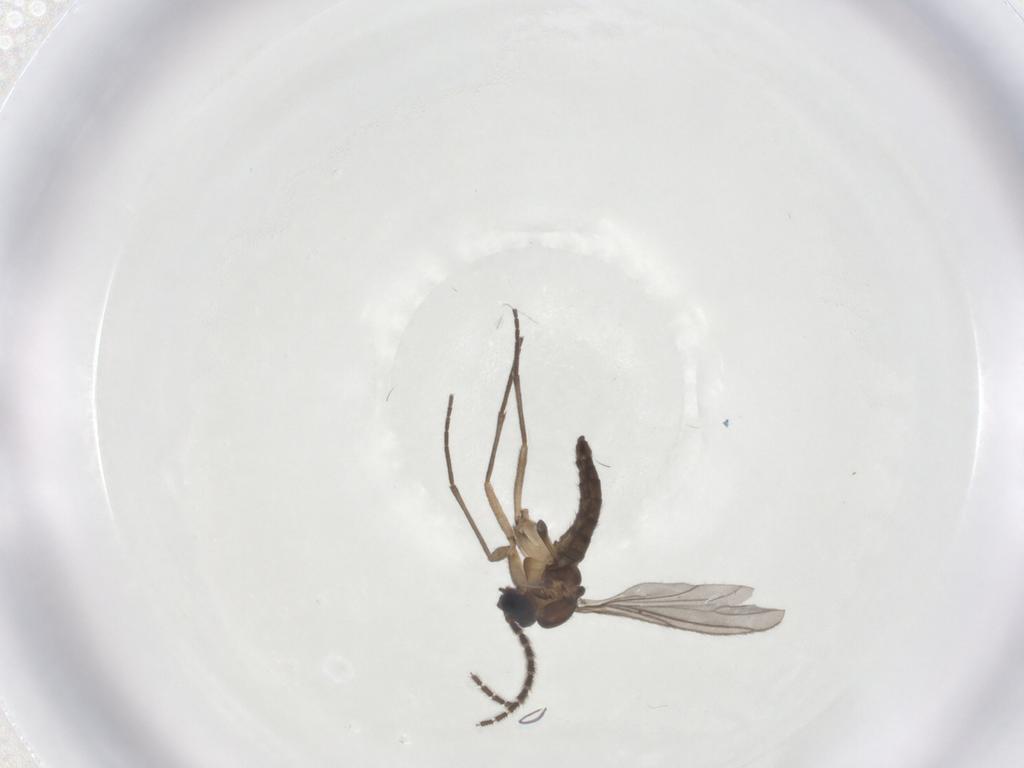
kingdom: Animalia
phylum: Arthropoda
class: Insecta
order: Diptera
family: Sciaridae
